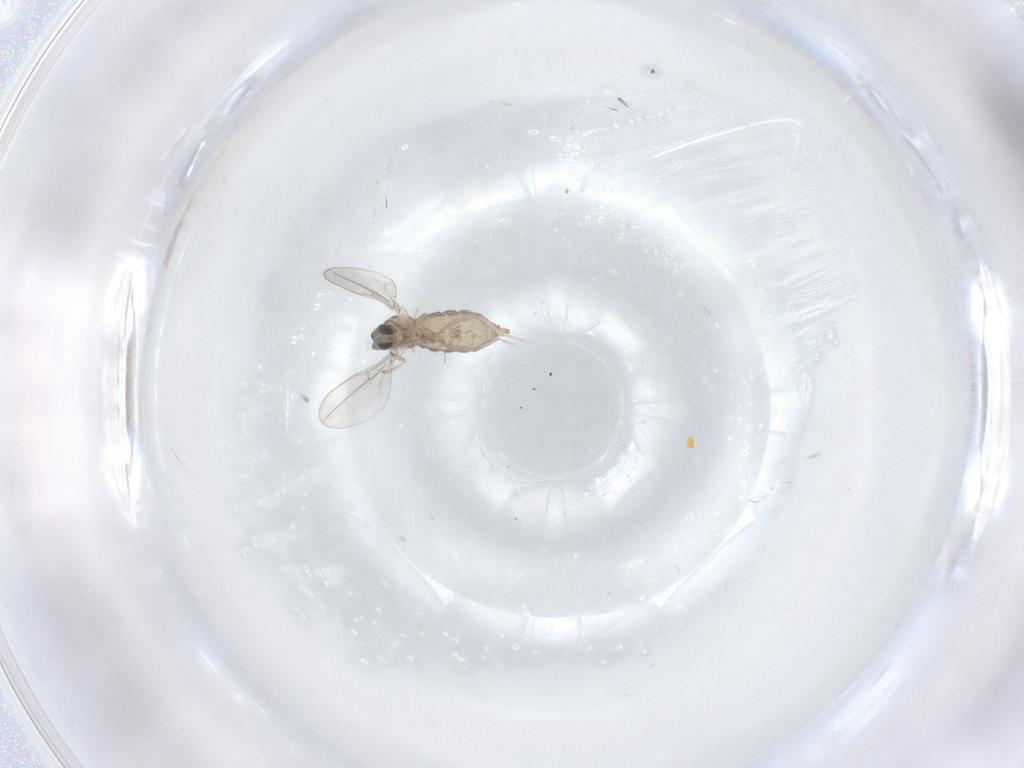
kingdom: Animalia
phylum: Arthropoda
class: Insecta
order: Diptera
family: Cecidomyiidae
